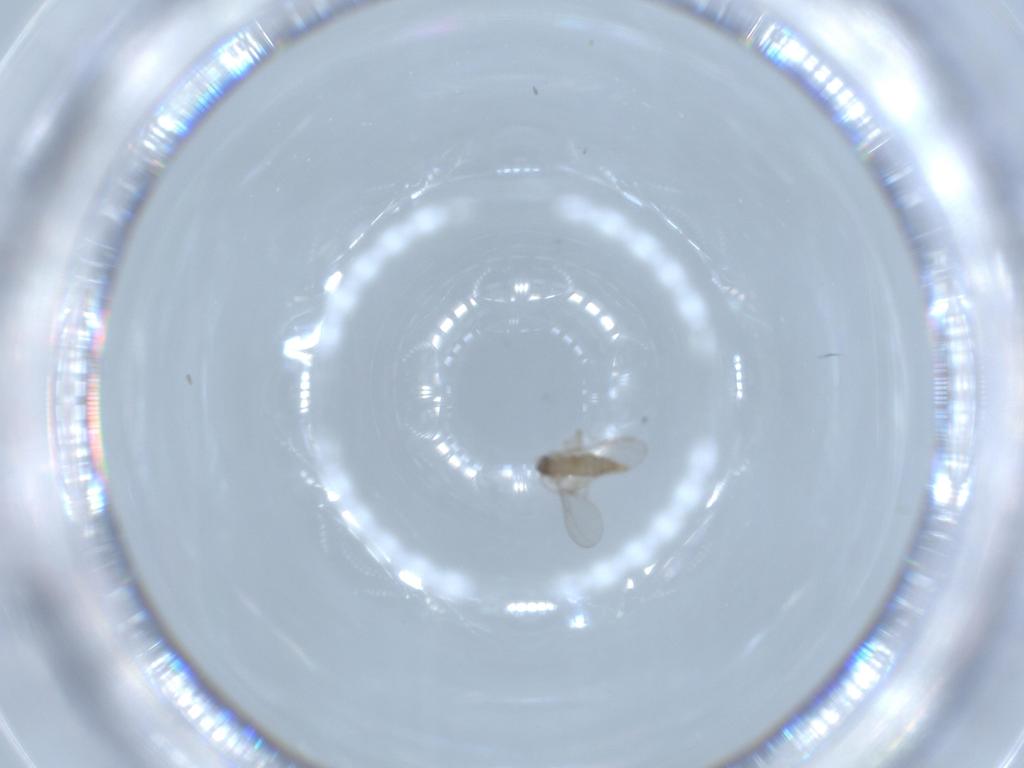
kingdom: Animalia
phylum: Arthropoda
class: Insecta
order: Diptera
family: Cecidomyiidae
